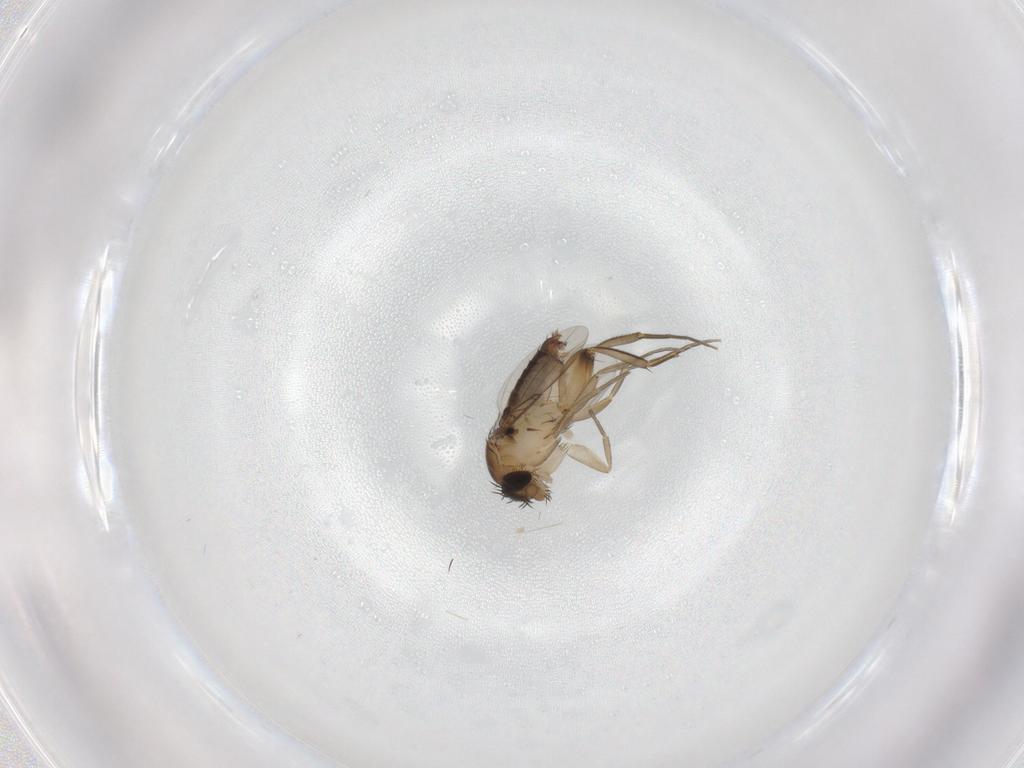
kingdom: Animalia
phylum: Arthropoda
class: Insecta
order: Diptera
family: Phoridae
